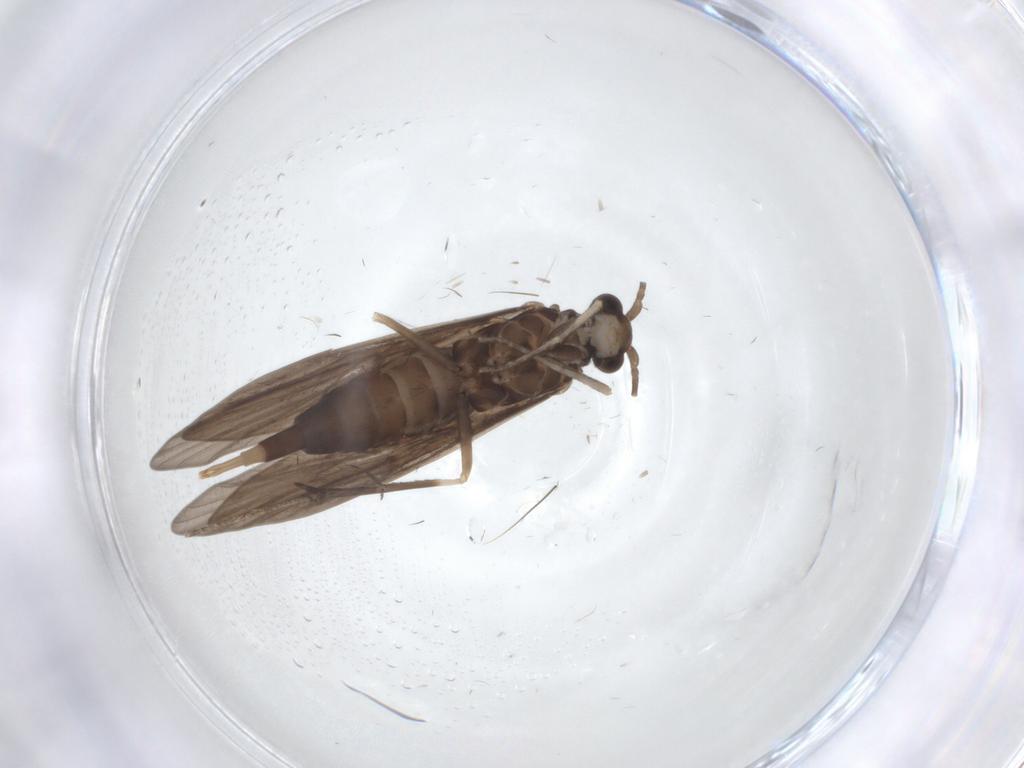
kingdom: Animalia
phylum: Arthropoda
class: Insecta
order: Trichoptera
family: Xiphocentronidae
